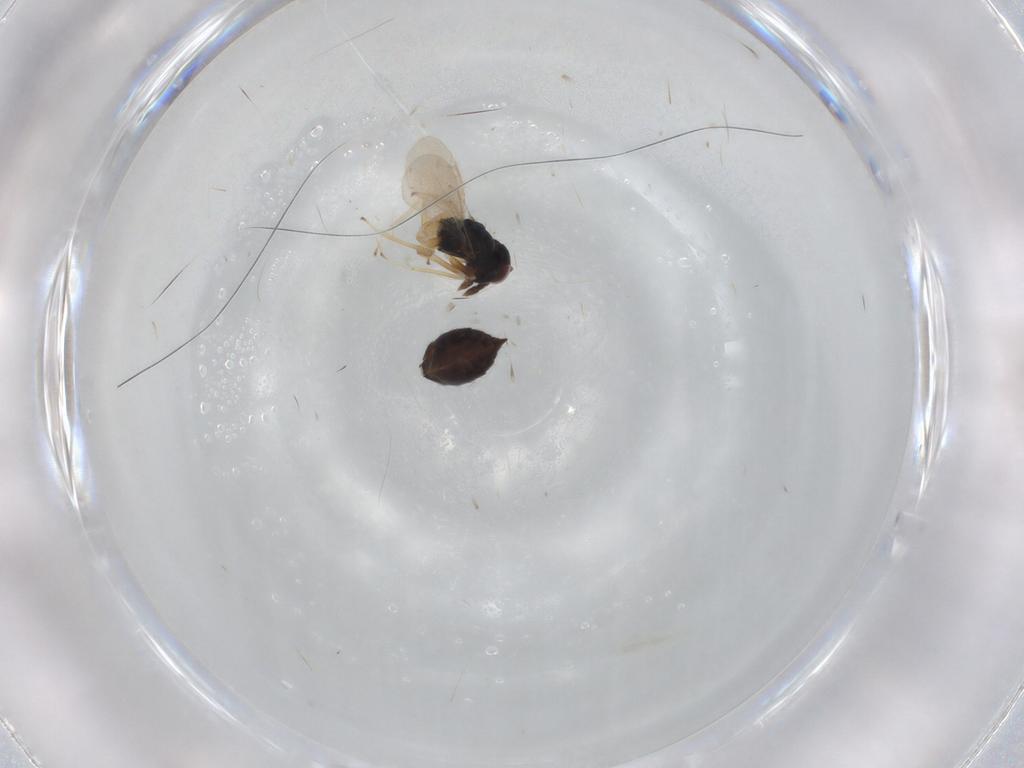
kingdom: Animalia
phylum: Arthropoda
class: Insecta
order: Hymenoptera
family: Eulophidae
